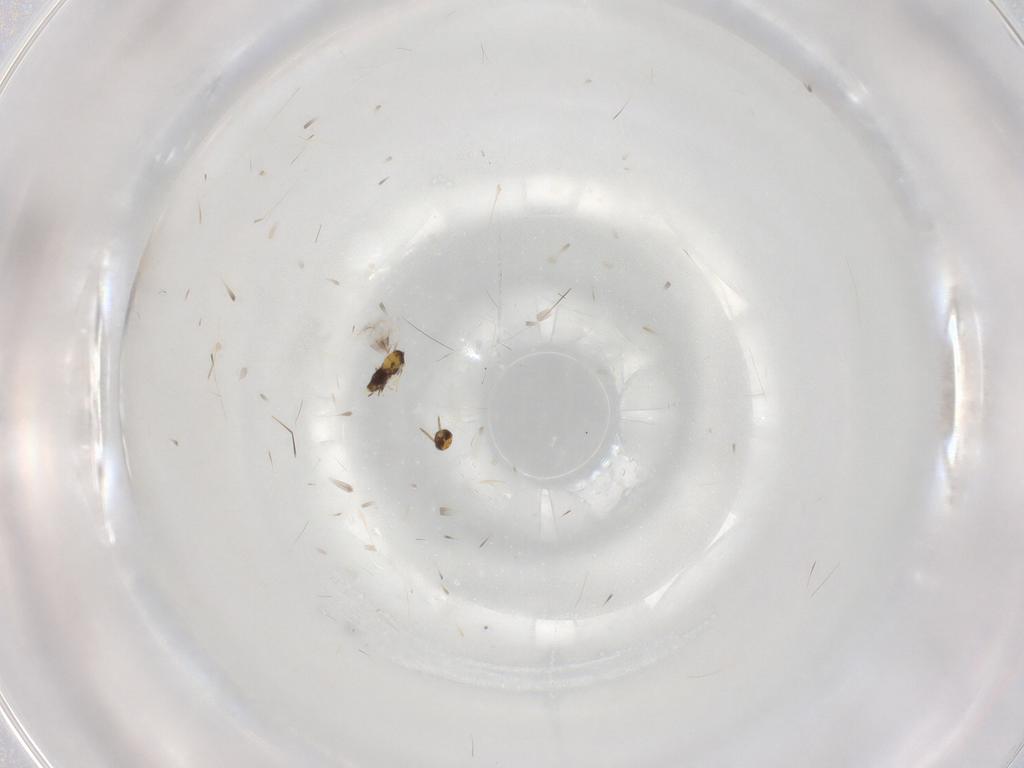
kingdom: Animalia
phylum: Arthropoda
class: Insecta
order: Hymenoptera
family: Aphelinidae
